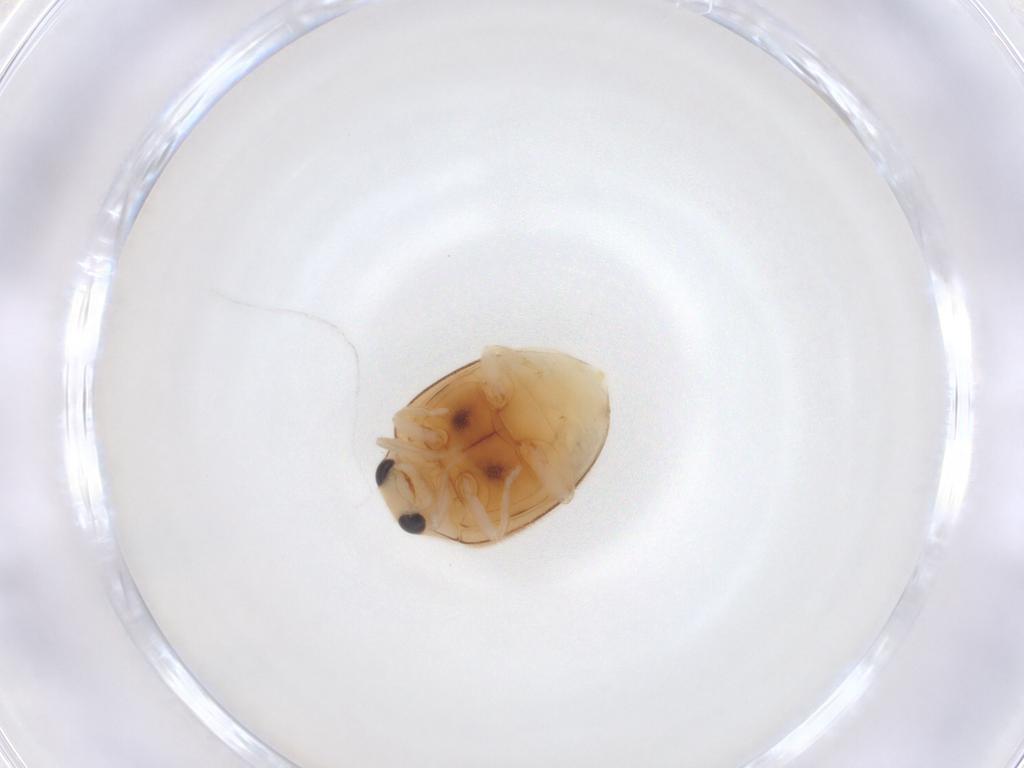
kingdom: Animalia
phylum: Arthropoda
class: Insecta
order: Coleoptera
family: Coccinellidae
